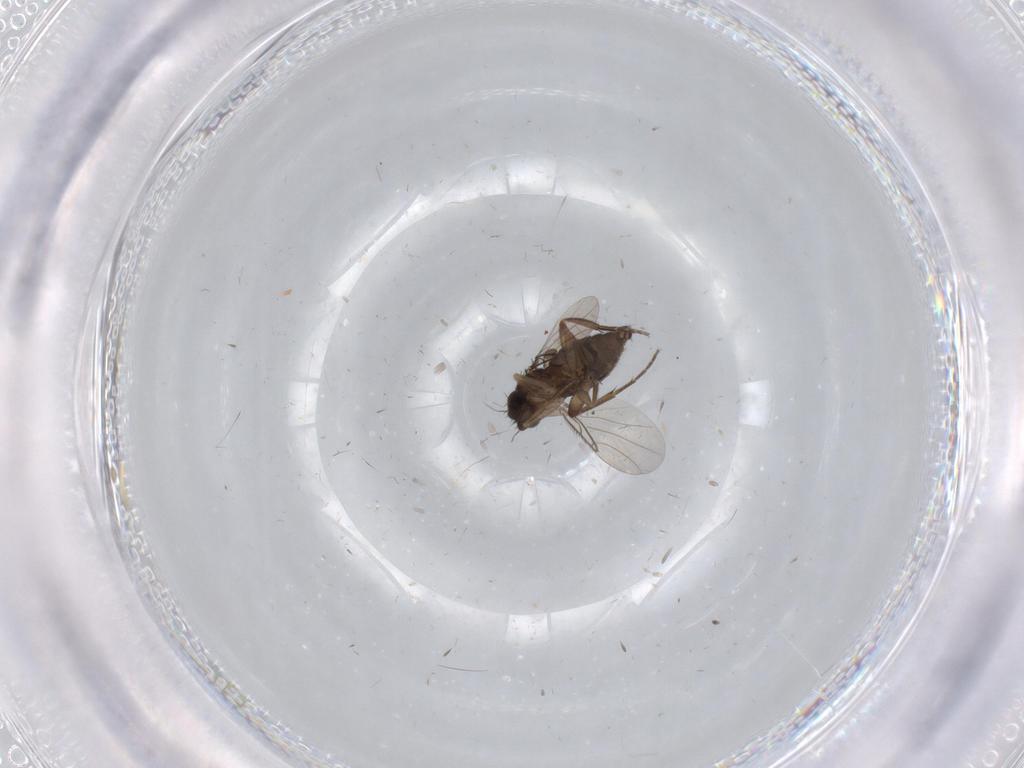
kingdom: Animalia
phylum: Arthropoda
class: Insecta
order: Diptera
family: Phoridae
